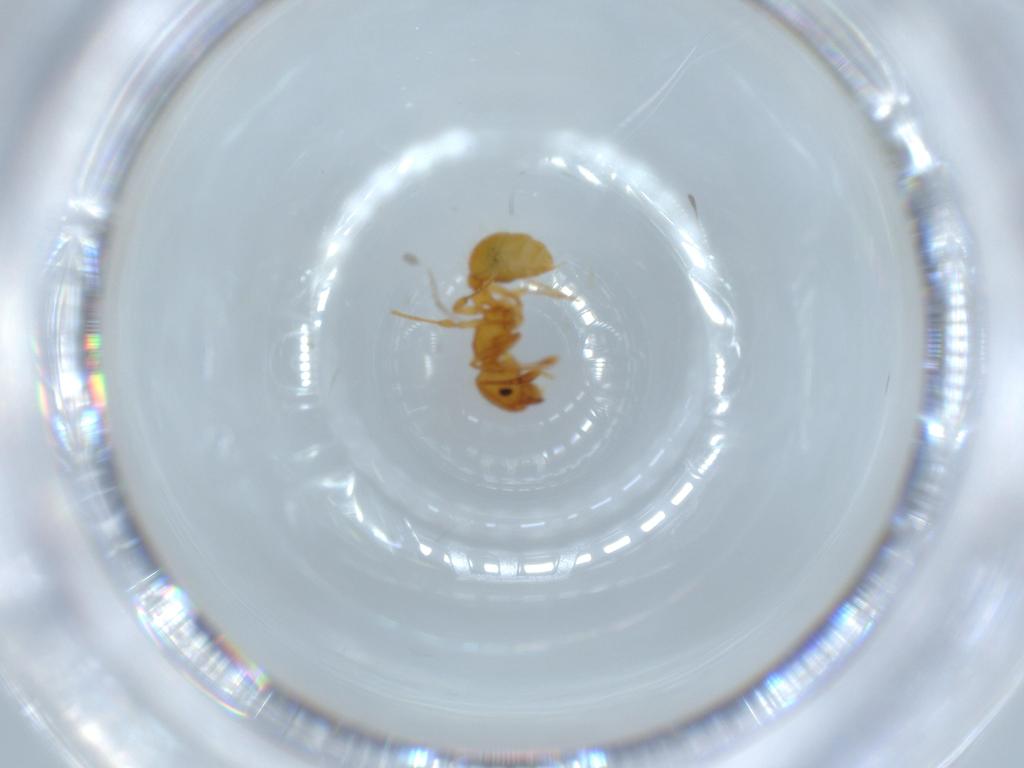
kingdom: Animalia
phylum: Arthropoda
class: Insecta
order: Hymenoptera
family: Formicidae
